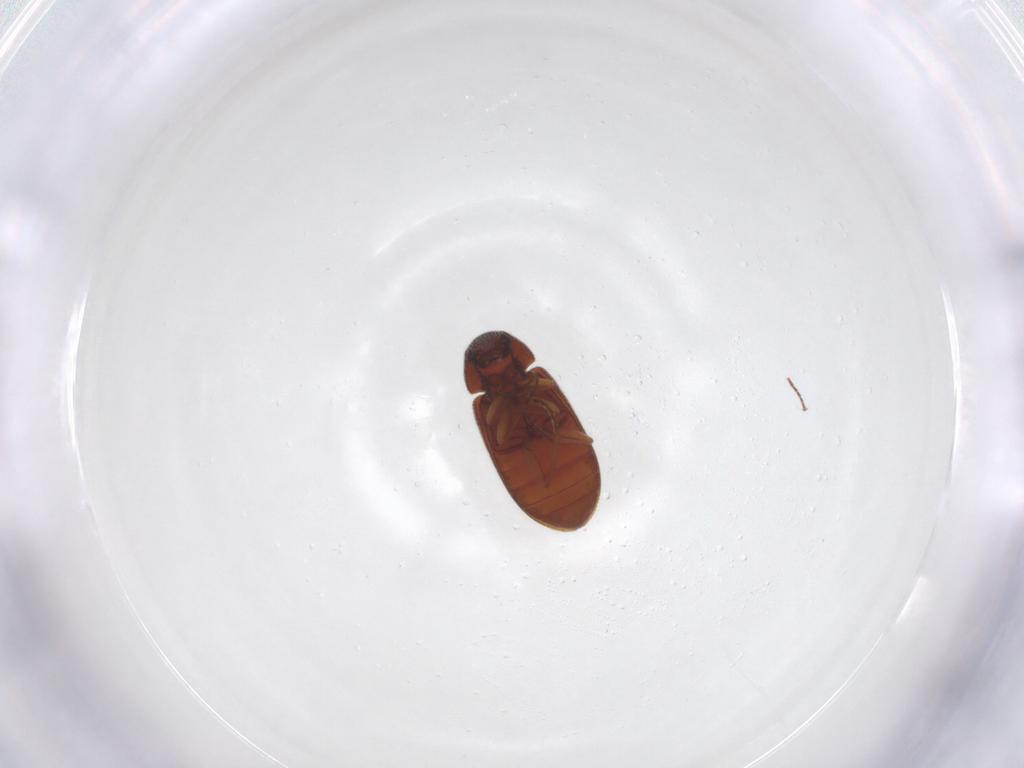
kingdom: Animalia
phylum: Arthropoda
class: Insecta
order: Coleoptera
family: Rhadalidae
